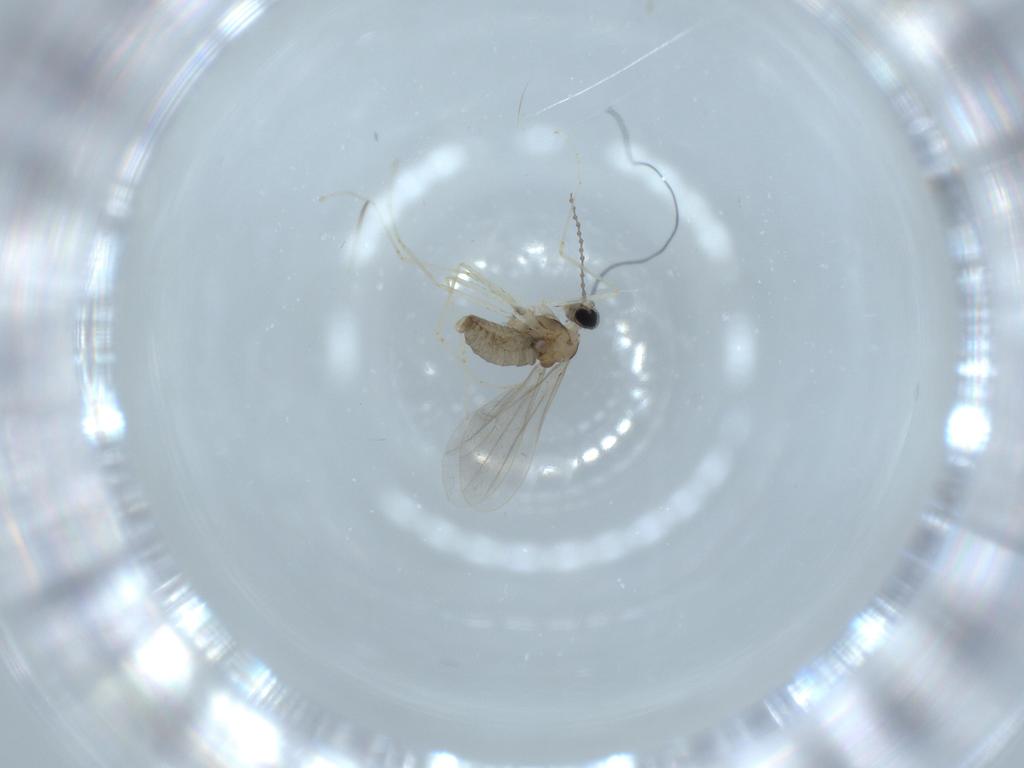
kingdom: Animalia
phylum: Arthropoda
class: Insecta
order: Diptera
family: Cecidomyiidae
